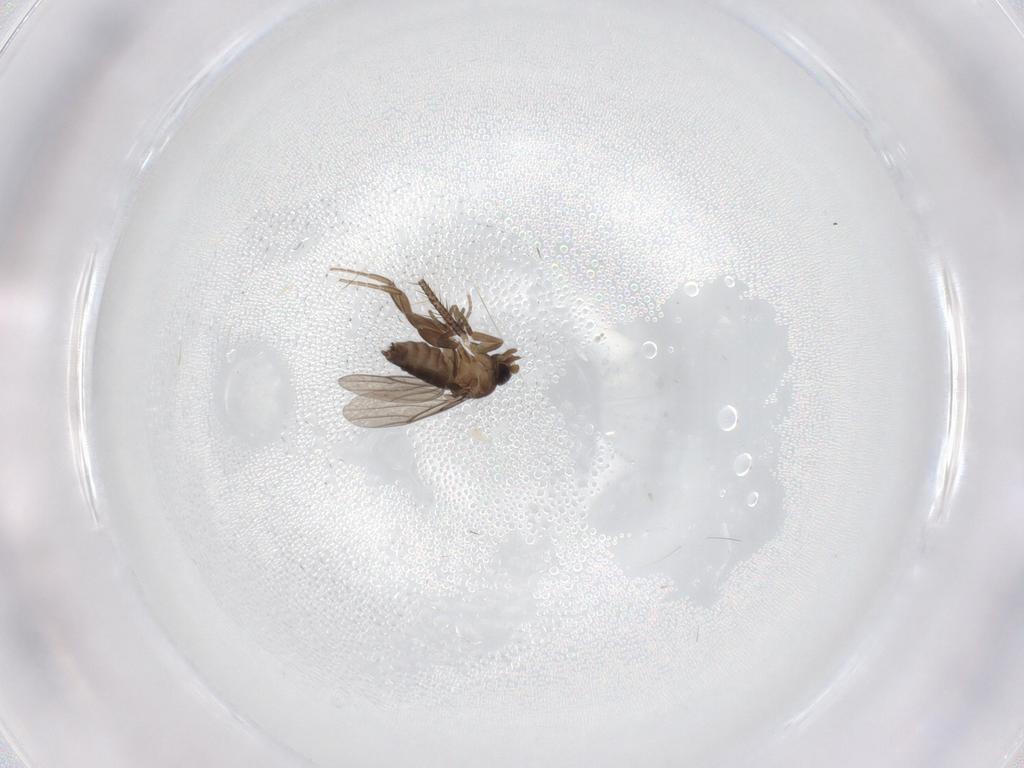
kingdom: Animalia
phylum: Arthropoda
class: Insecta
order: Diptera
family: Phoridae
